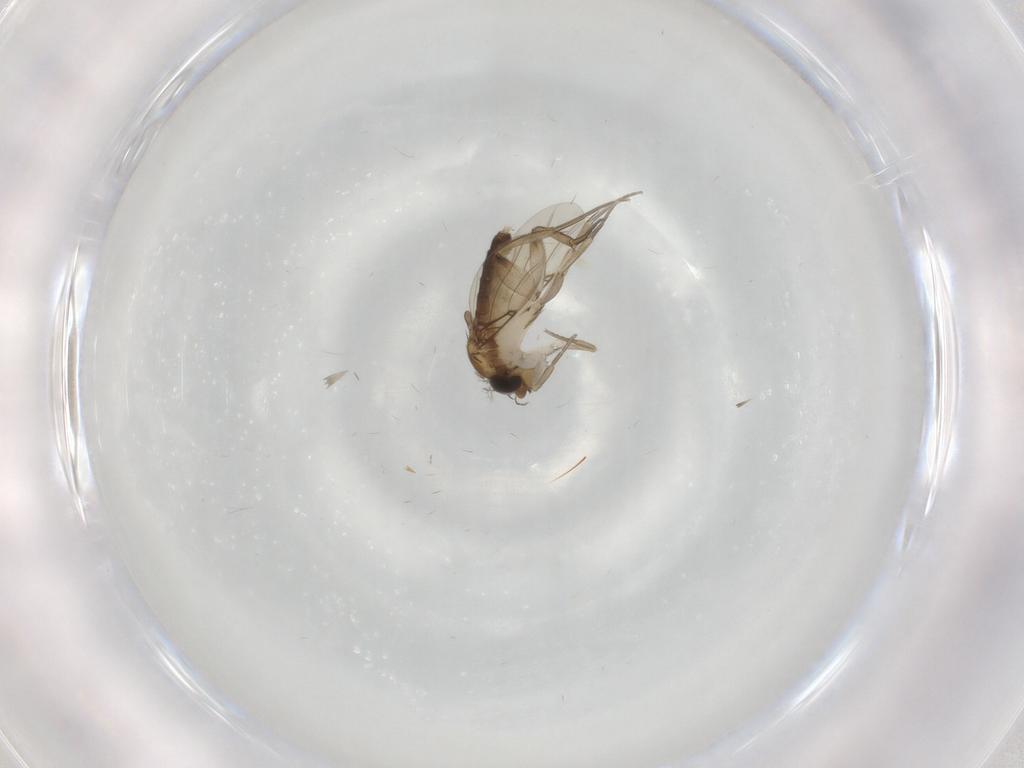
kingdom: Animalia
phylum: Arthropoda
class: Insecta
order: Diptera
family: Phoridae
